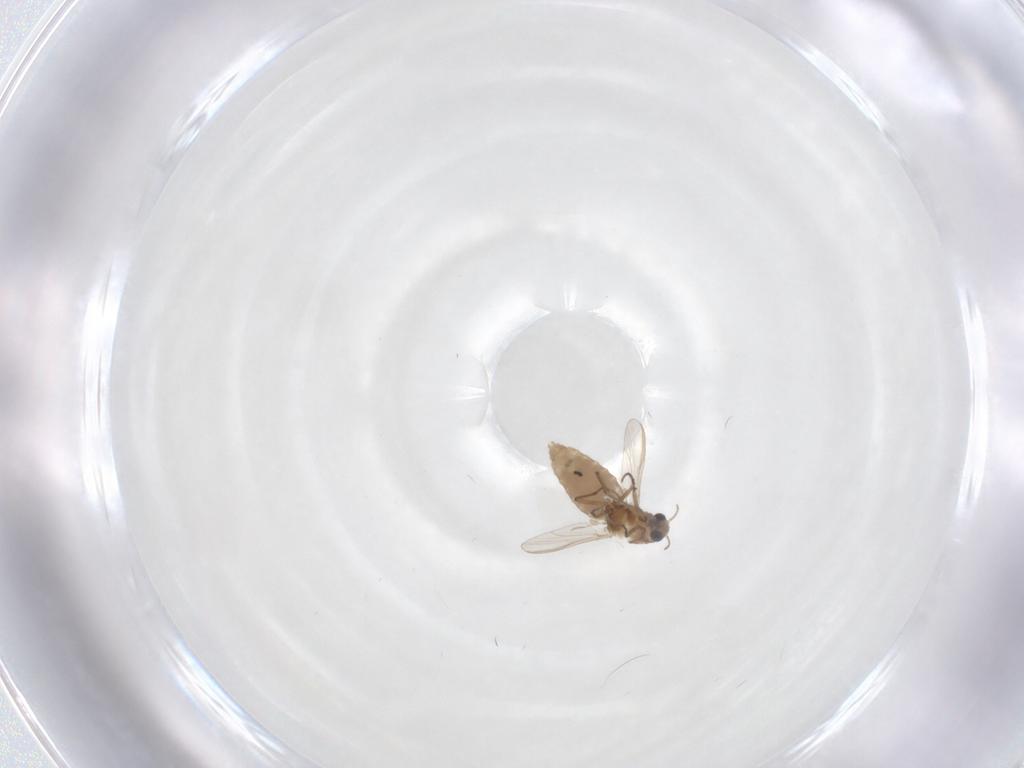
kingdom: Animalia
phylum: Arthropoda
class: Insecta
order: Diptera
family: Chironomidae
